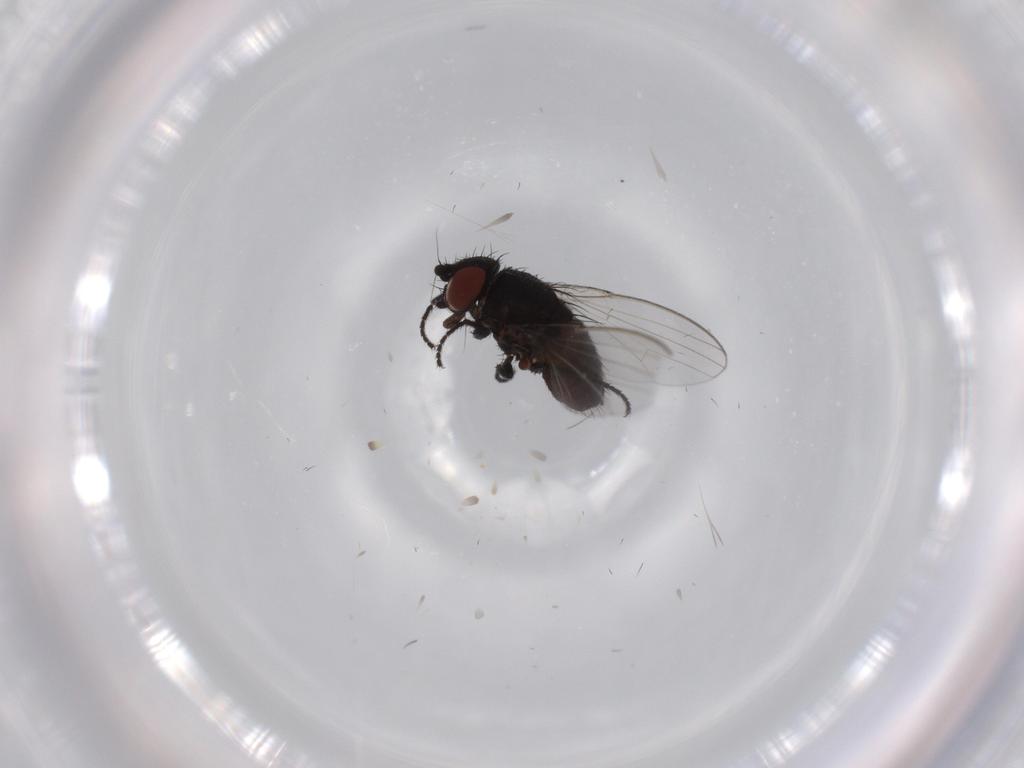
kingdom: Animalia
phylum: Arthropoda
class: Insecta
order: Diptera
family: Milichiidae
